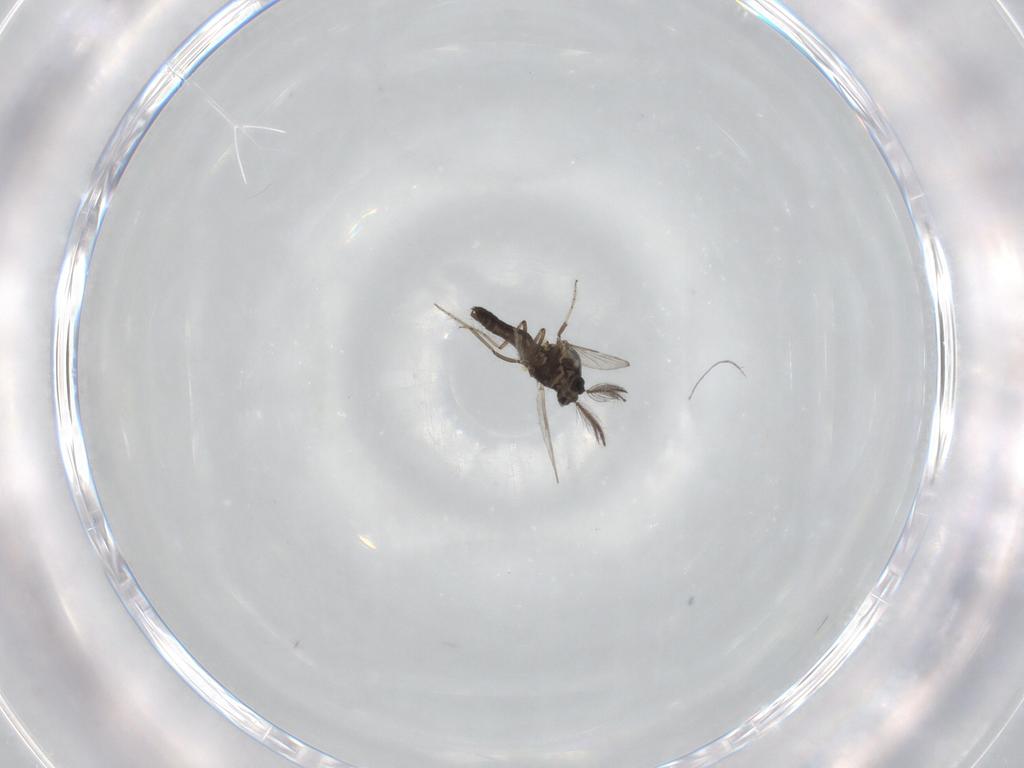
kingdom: Animalia
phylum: Arthropoda
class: Insecta
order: Diptera
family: Ceratopogonidae
